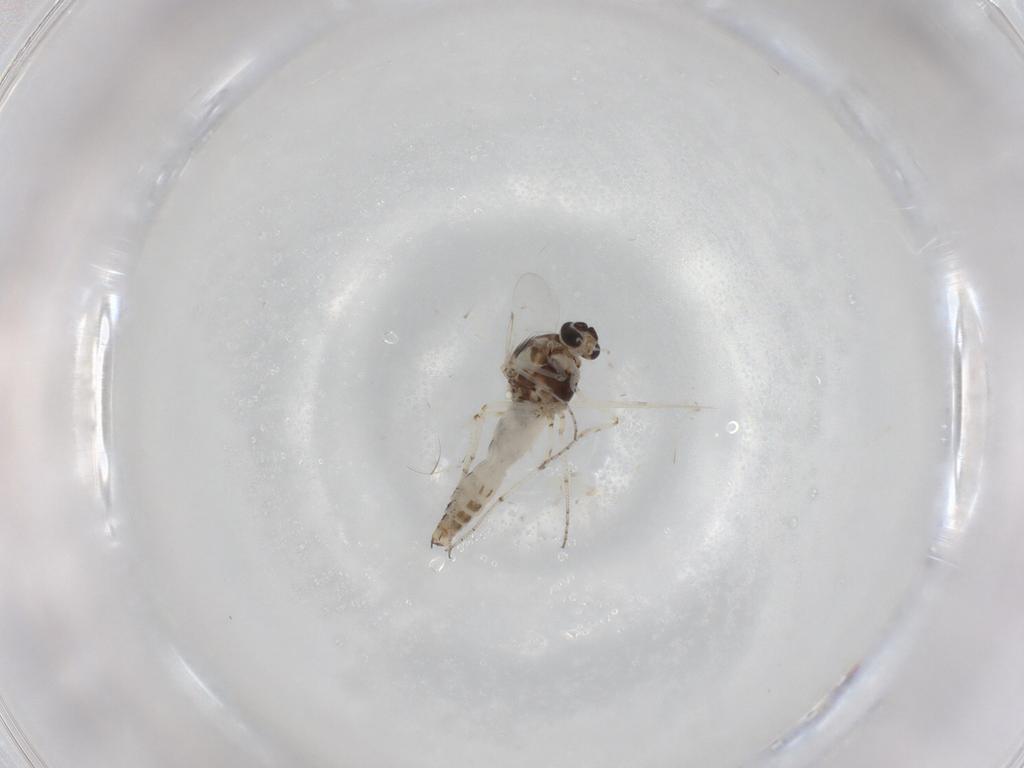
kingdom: Animalia
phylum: Arthropoda
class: Insecta
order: Diptera
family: Ceratopogonidae
